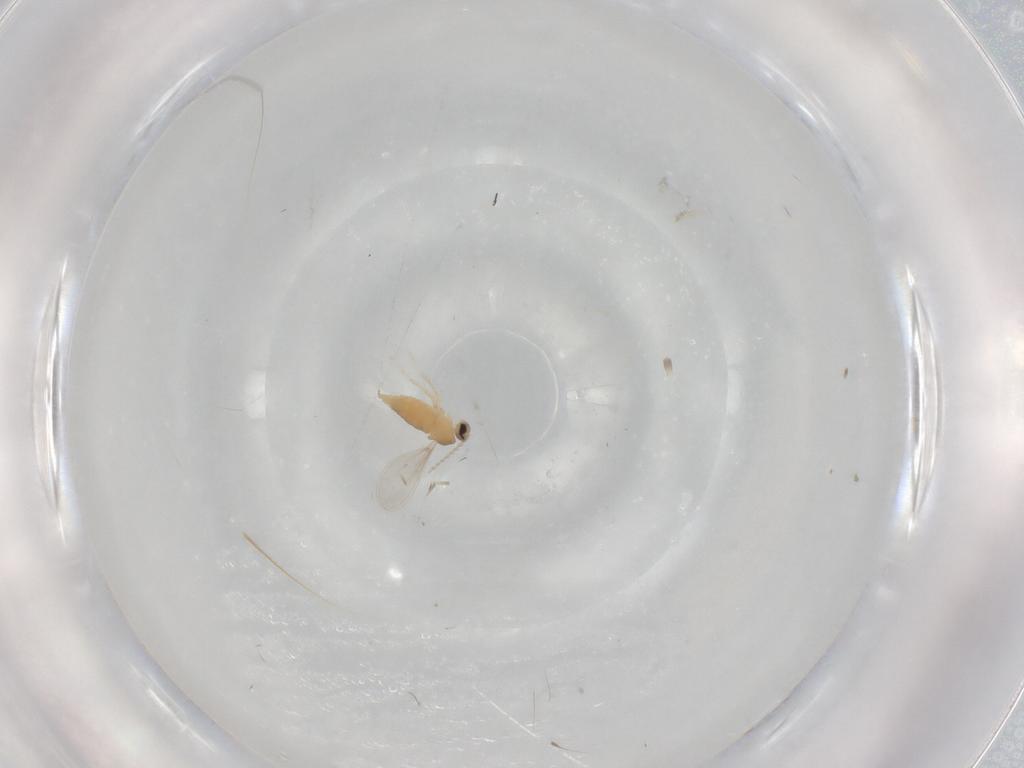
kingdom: Animalia
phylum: Arthropoda
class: Insecta
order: Diptera
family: Cecidomyiidae
